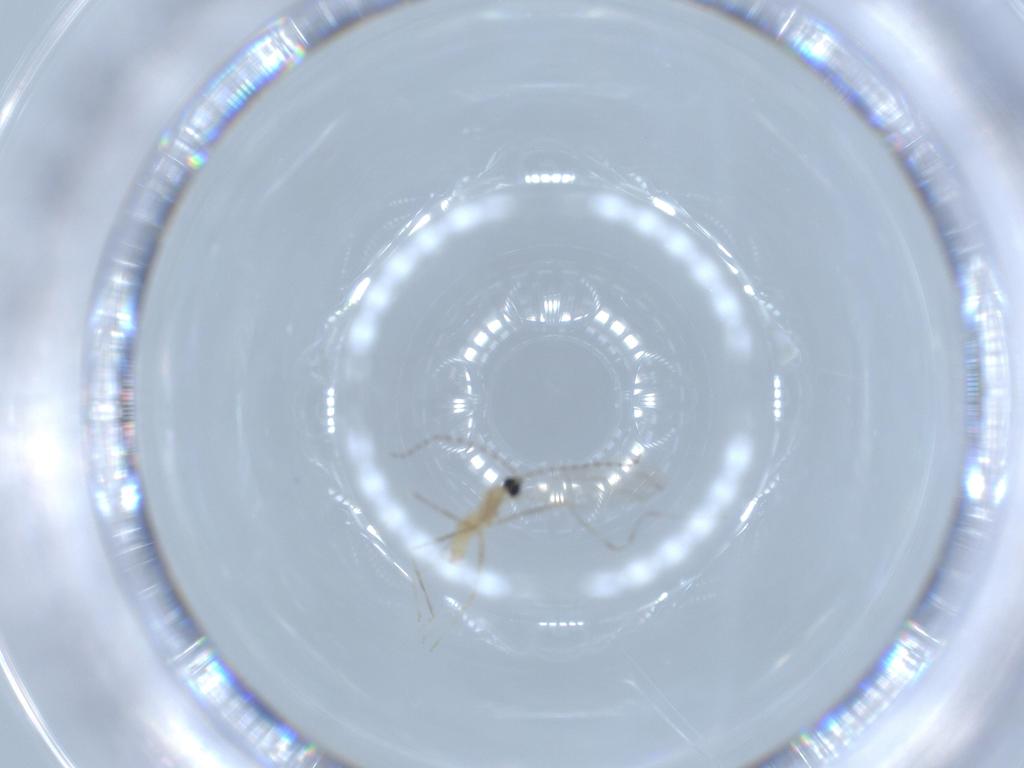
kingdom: Animalia
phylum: Arthropoda
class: Insecta
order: Diptera
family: Cecidomyiidae
